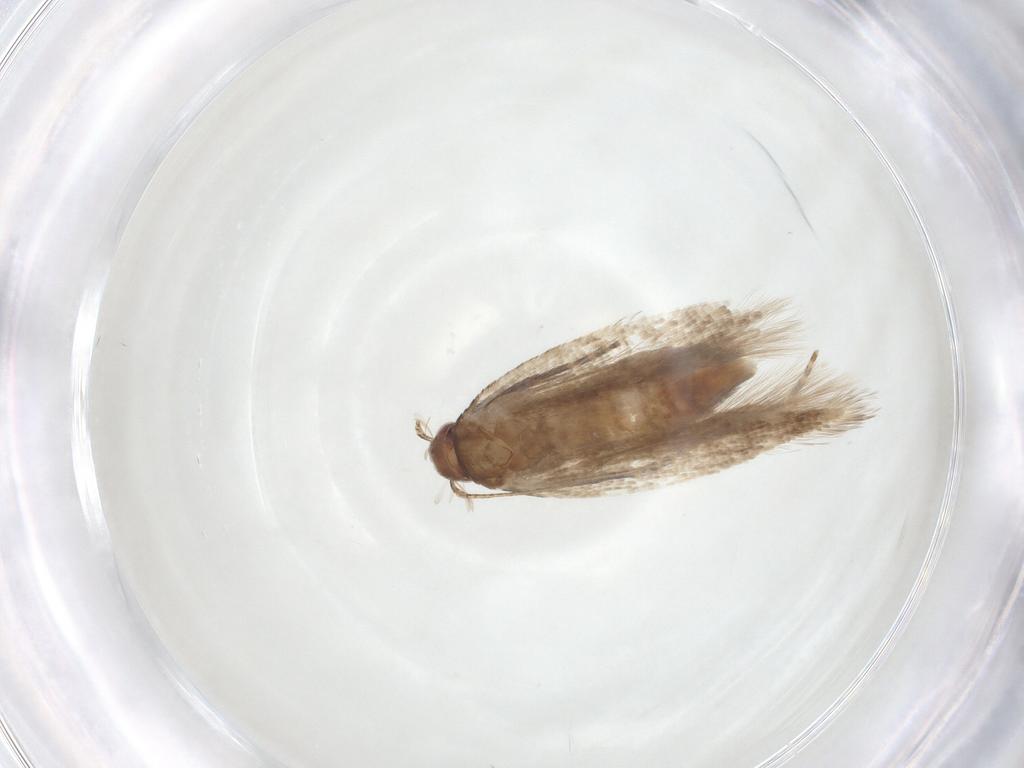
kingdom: Animalia
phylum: Arthropoda
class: Insecta
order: Lepidoptera
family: Gelechiidae
